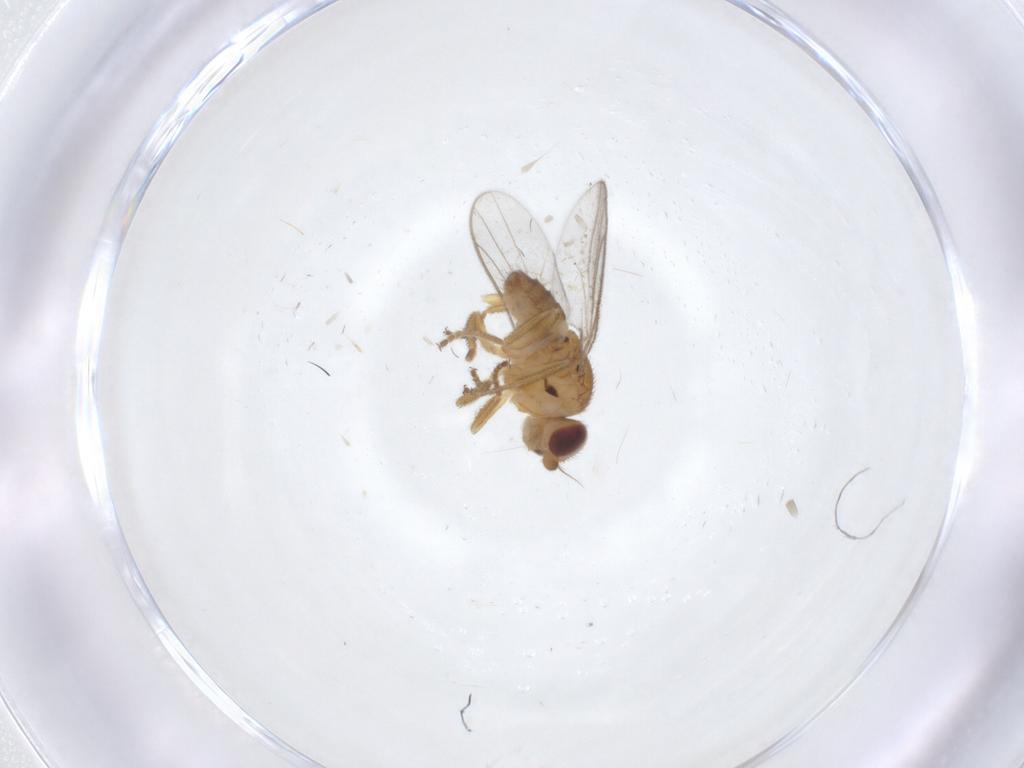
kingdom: Animalia
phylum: Arthropoda
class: Insecta
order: Diptera
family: Chloropidae
